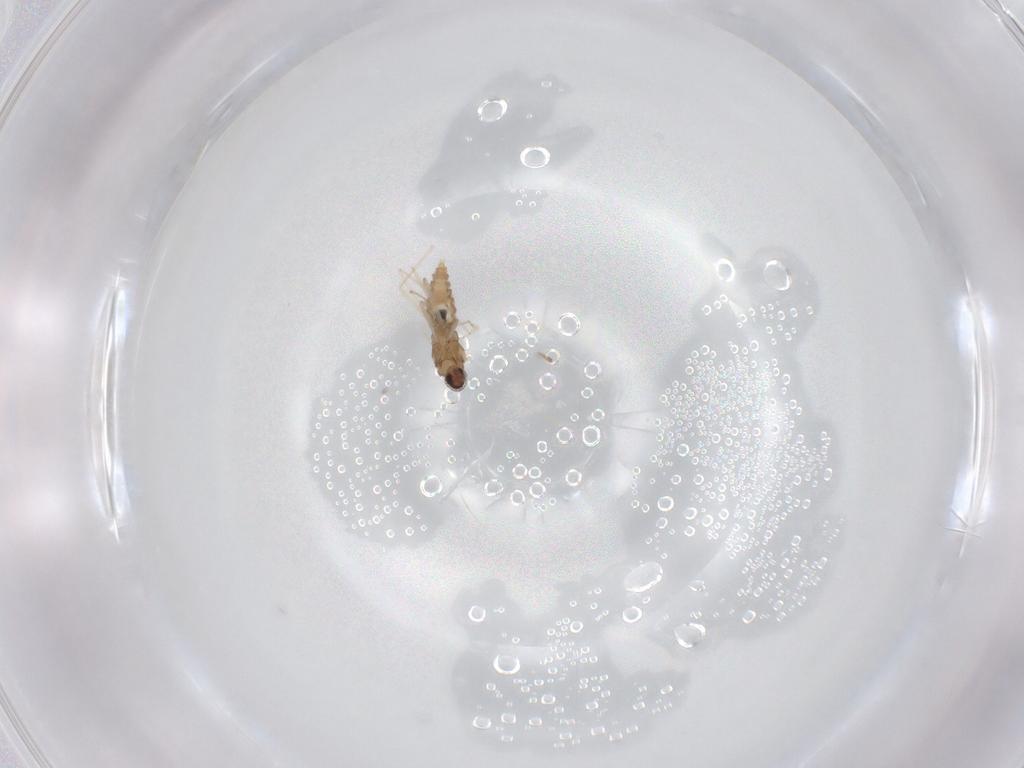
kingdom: Animalia
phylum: Arthropoda
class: Insecta
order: Diptera
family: Cecidomyiidae
